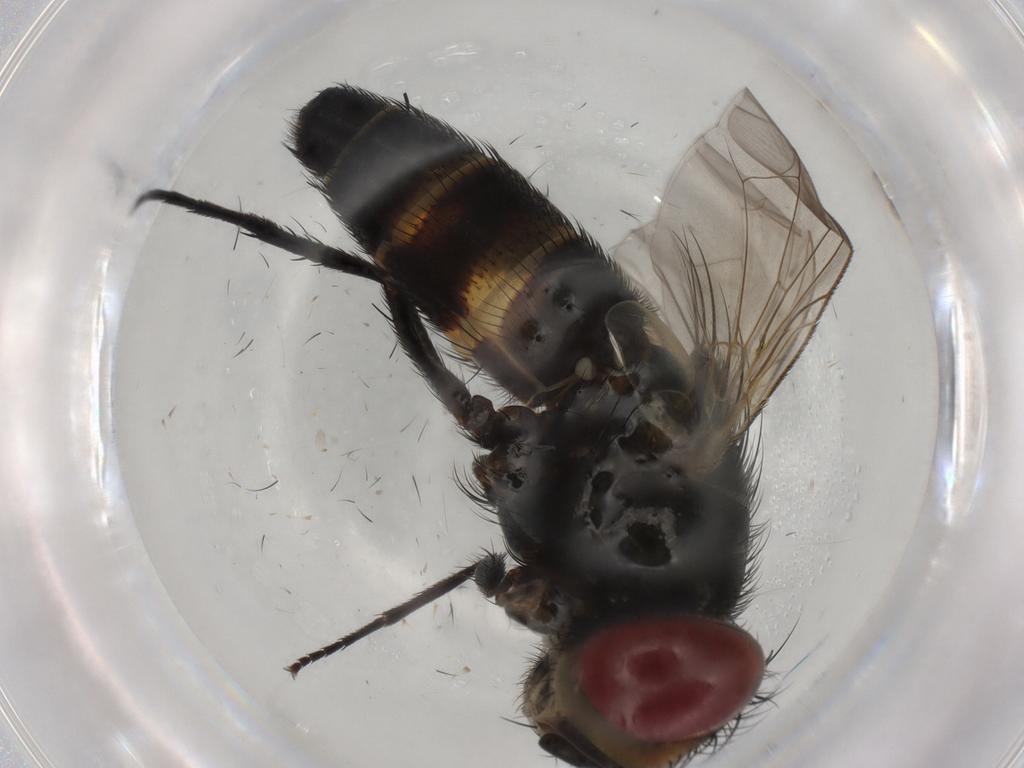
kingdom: Animalia
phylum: Arthropoda
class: Insecta
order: Diptera
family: Anthomyiidae
